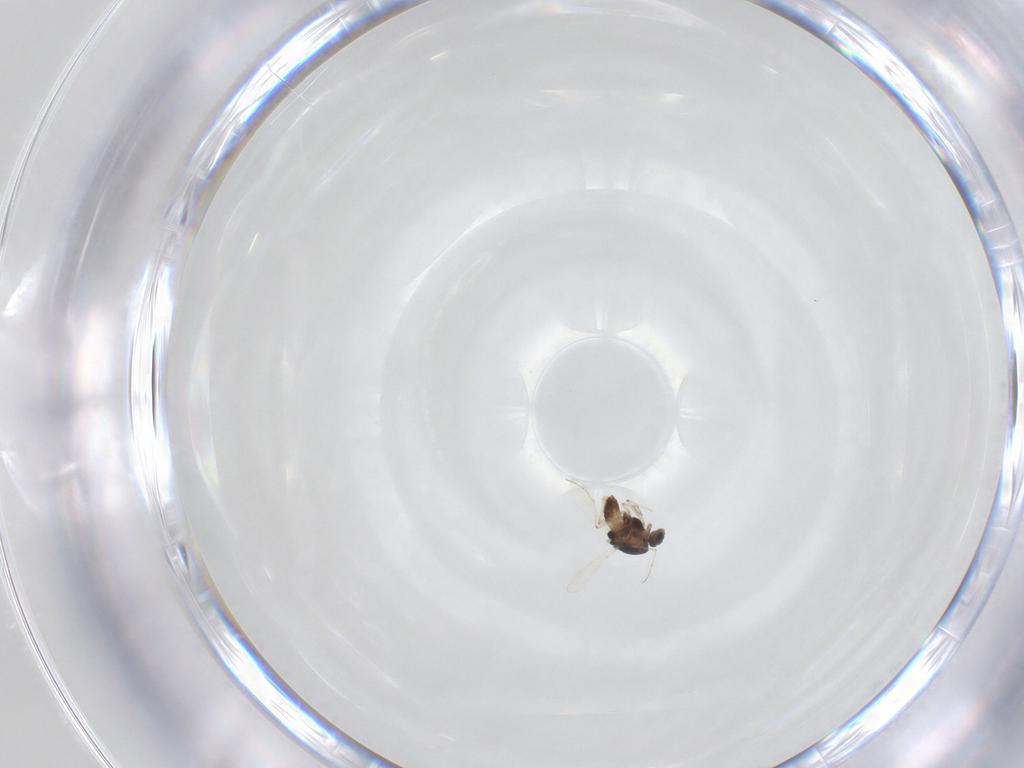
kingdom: Animalia
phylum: Arthropoda
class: Insecta
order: Diptera
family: Chironomidae
